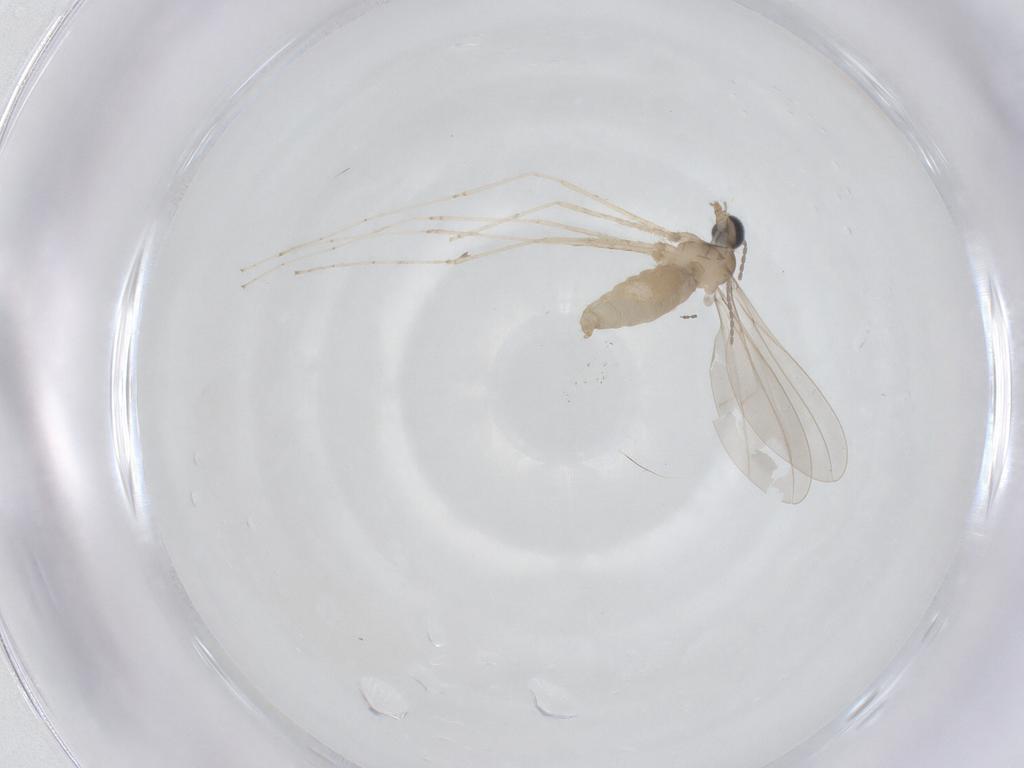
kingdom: Animalia
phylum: Arthropoda
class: Insecta
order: Diptera
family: Cecidomyiidae
